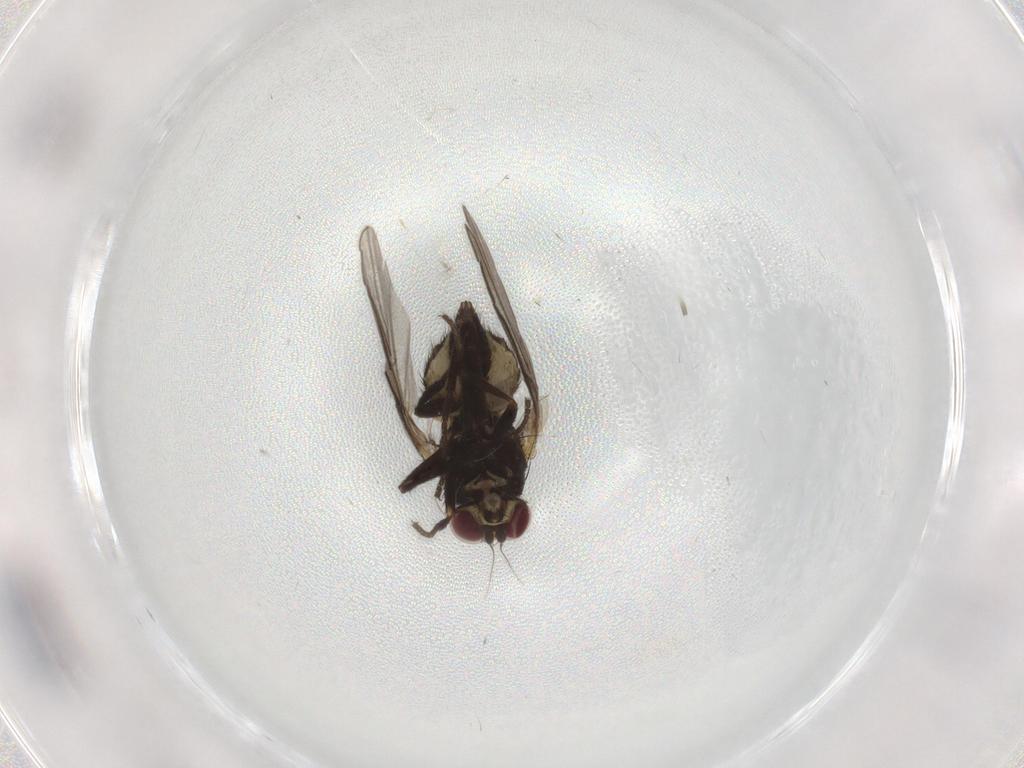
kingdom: Animalia
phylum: Arthropoda
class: Insecta
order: Diptera
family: Agromyzidae
